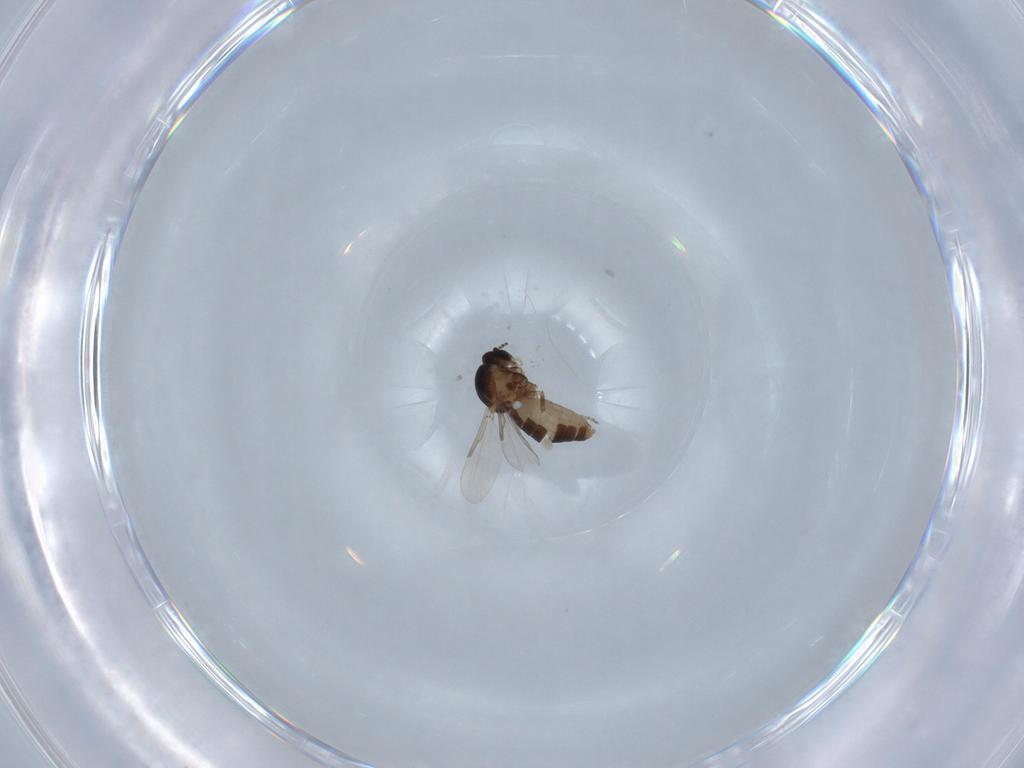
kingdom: Animalia
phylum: Arthropoda
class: Insecta
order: Diptera
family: Ceratopogonidae
